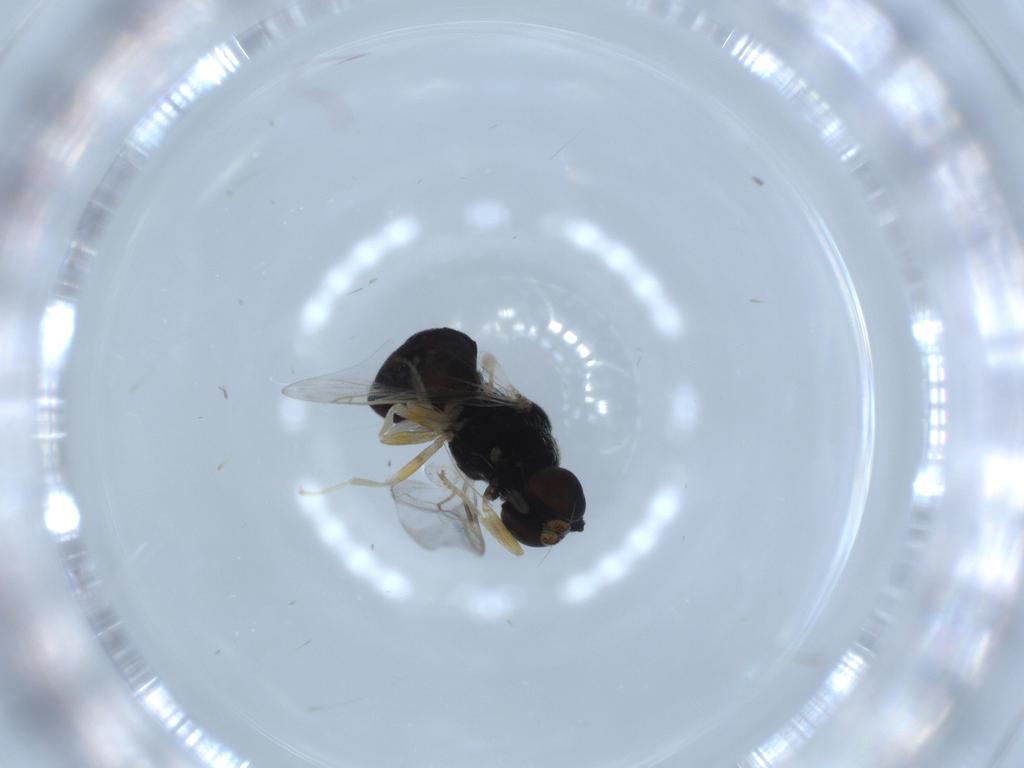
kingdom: Animalia
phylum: Arthropoda
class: Insecta
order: Diptera
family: Stratiomyidae
